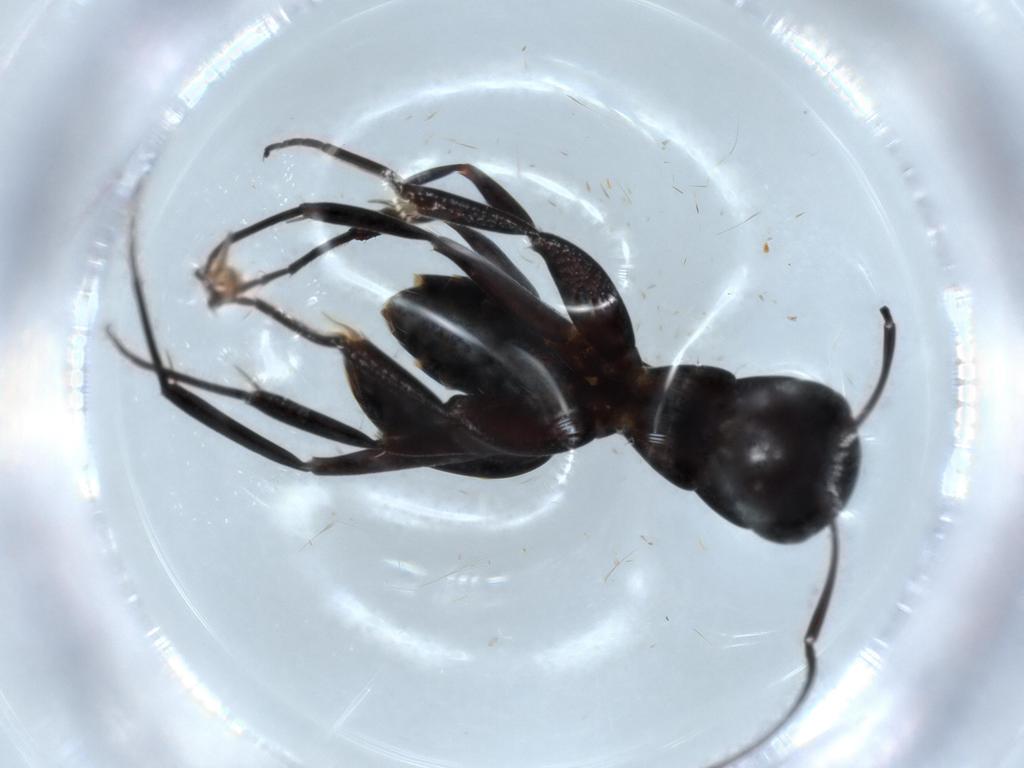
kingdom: Animalia
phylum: Arthropoda
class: Insecta
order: Hymenoptera
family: Formicidae
